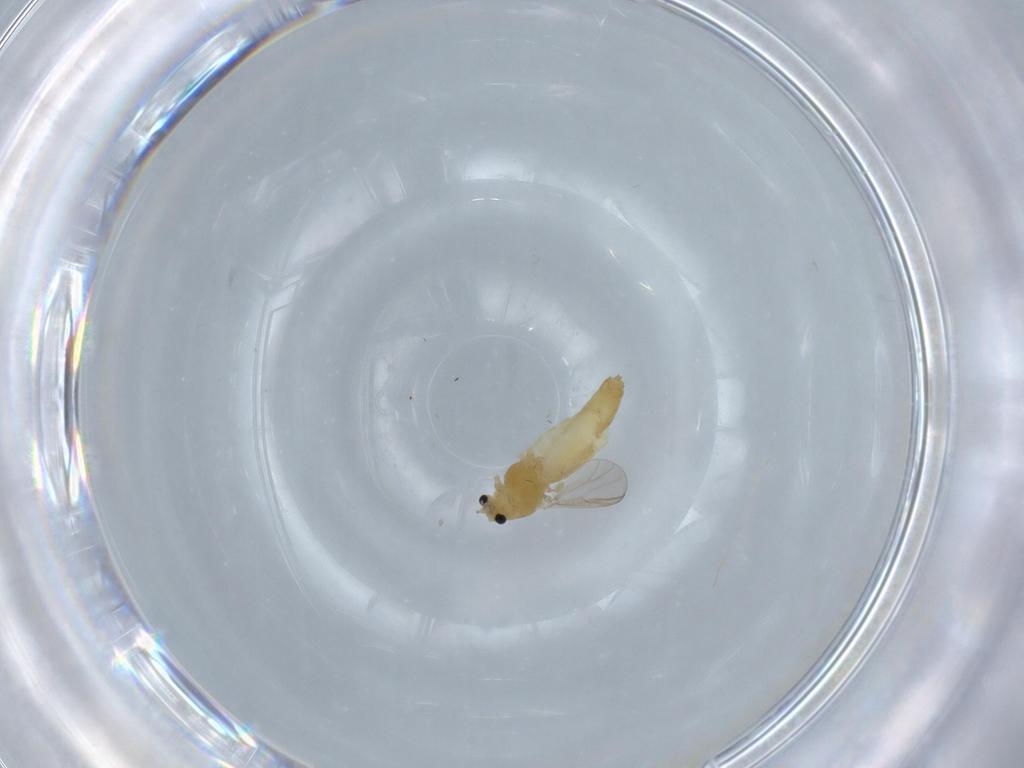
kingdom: Animalia
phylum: Arthropoda
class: Insecta
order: Diptera
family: Chironomidae
